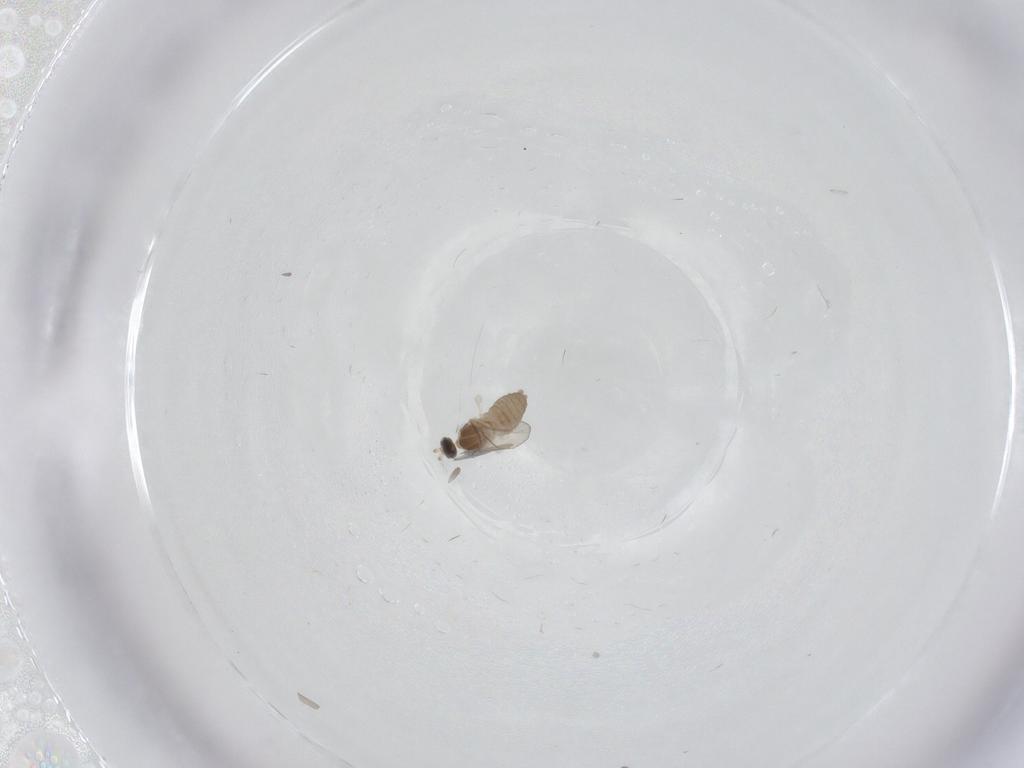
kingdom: Animalia
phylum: Arthropoda
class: Insecta
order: Diptera
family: Cecidomyiidae
